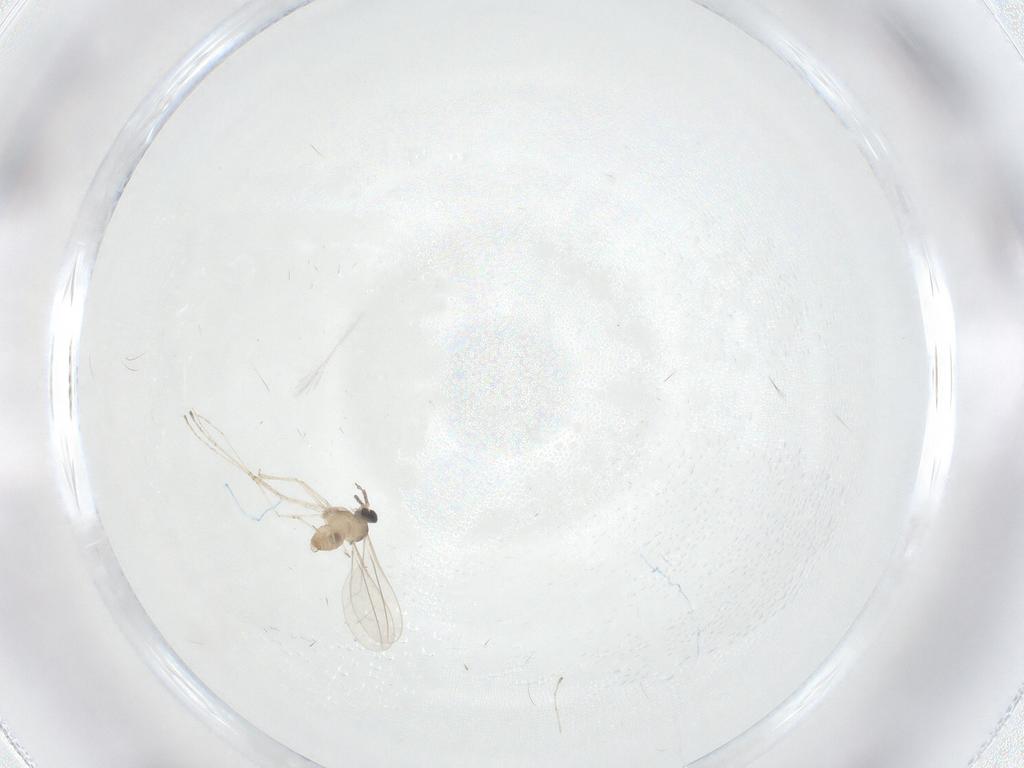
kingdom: Animalia
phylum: Arthropoda
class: Insecta
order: Diptera
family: Cecidomyiidae
